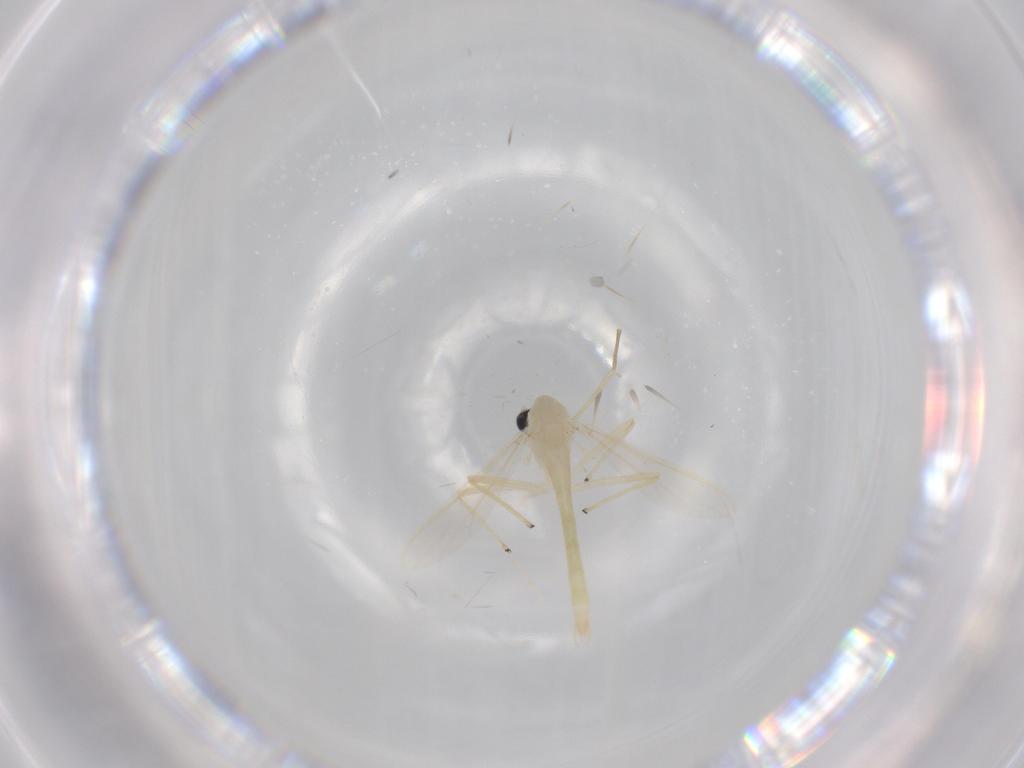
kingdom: Animalia
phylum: Arthropoda
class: Insecta
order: Diptera
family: Chironomidae
